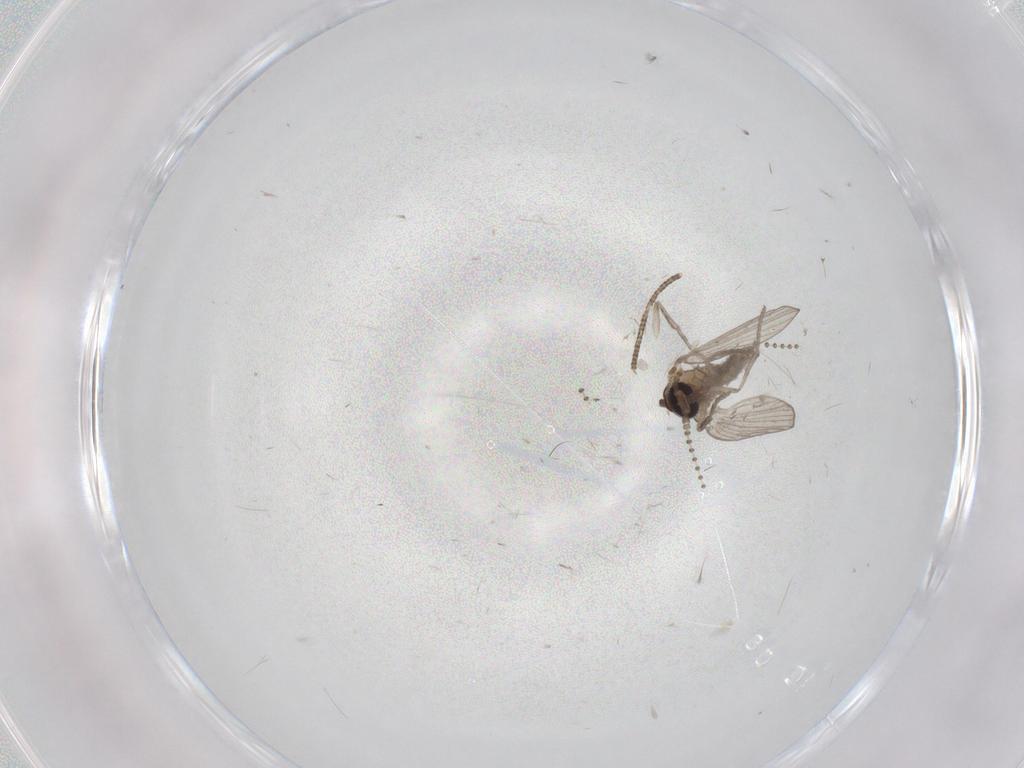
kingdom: Animalia
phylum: Arthropoda
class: Insecta
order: Diptera
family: Psychodidae
